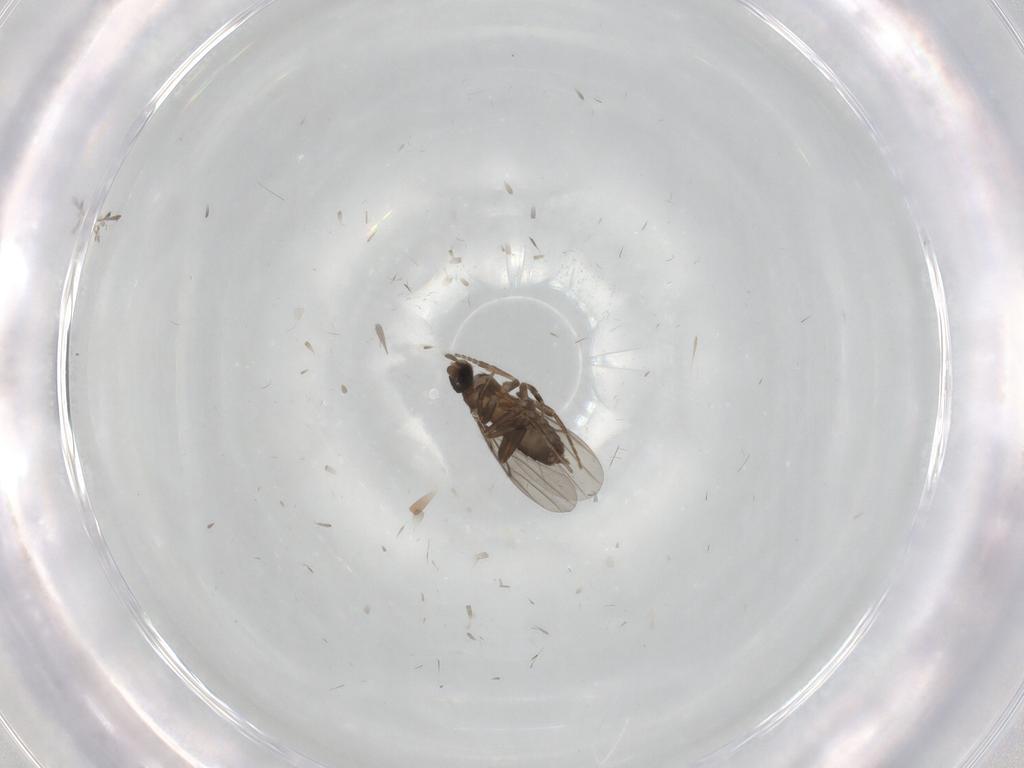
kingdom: Animalia
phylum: Arthropoda
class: Insecta
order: Diptera
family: Phoridae
